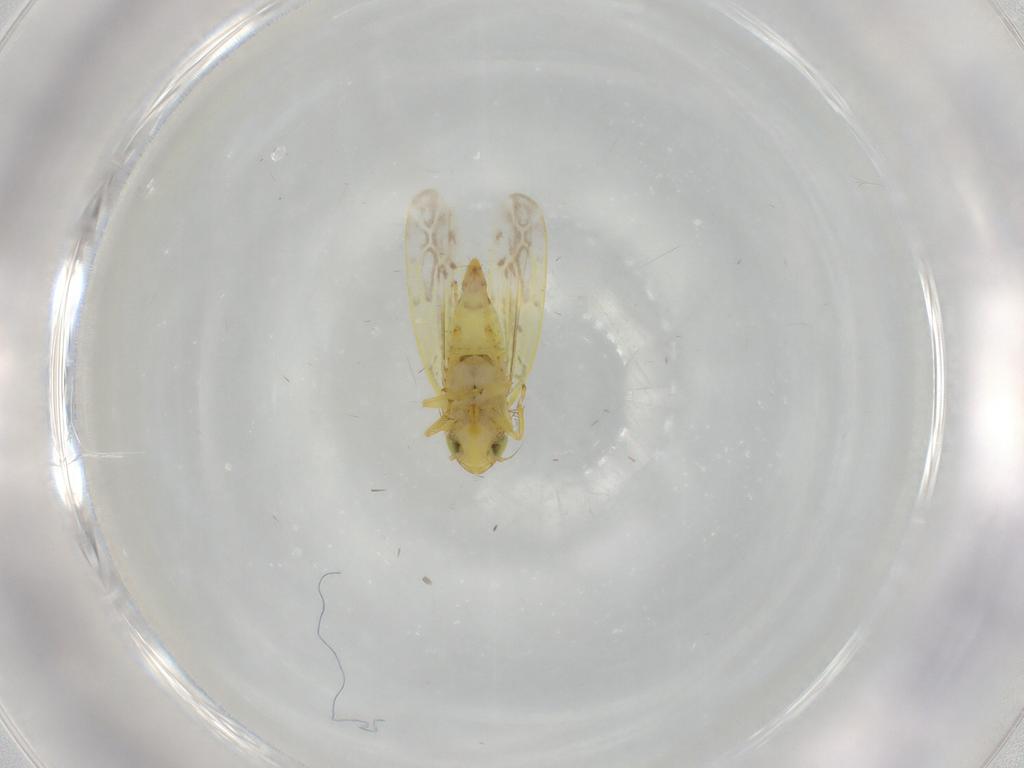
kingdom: Animalia
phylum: Arthropoda
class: Insecta
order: Hemiptera
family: Cicadellidae
